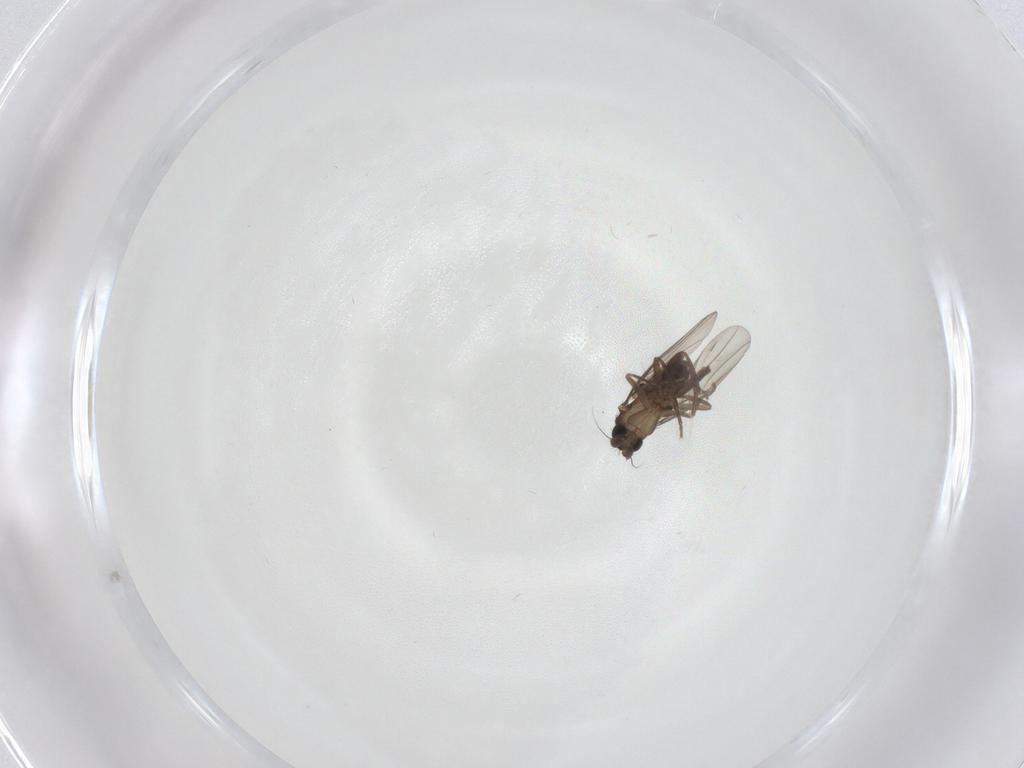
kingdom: Animalia
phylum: Arthropoda
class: Insecta
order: Diptera
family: Phoridae
